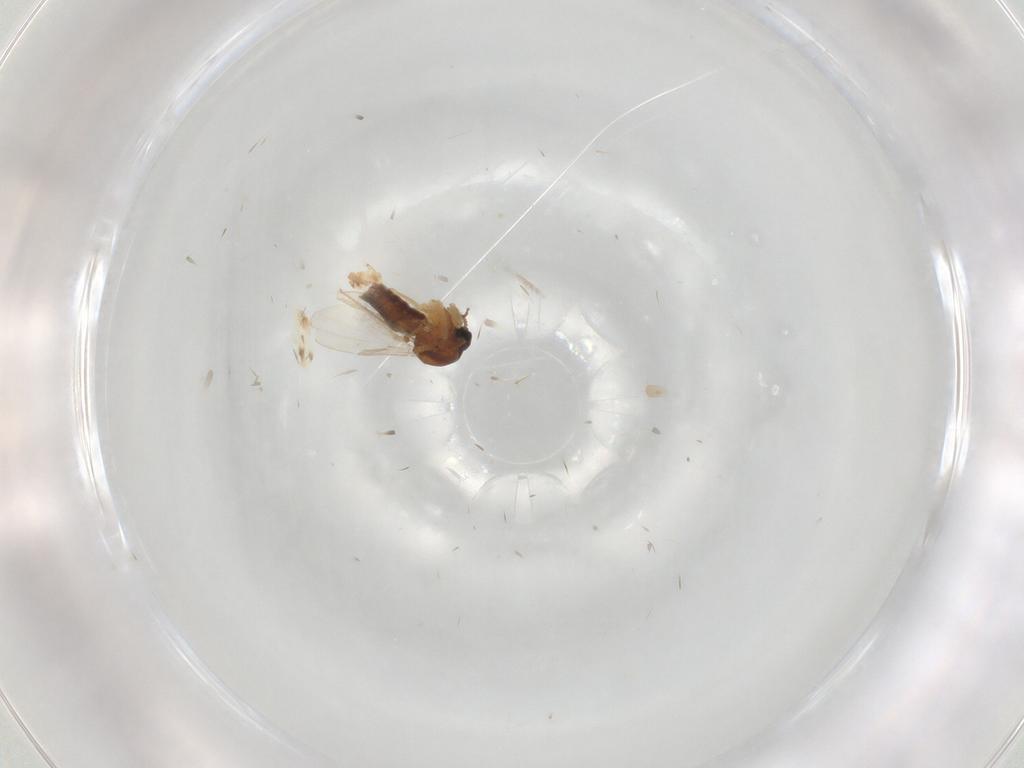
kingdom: Animalia
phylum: Arthropoda
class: Insecta
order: Diptera
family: Ceratopogonidae
